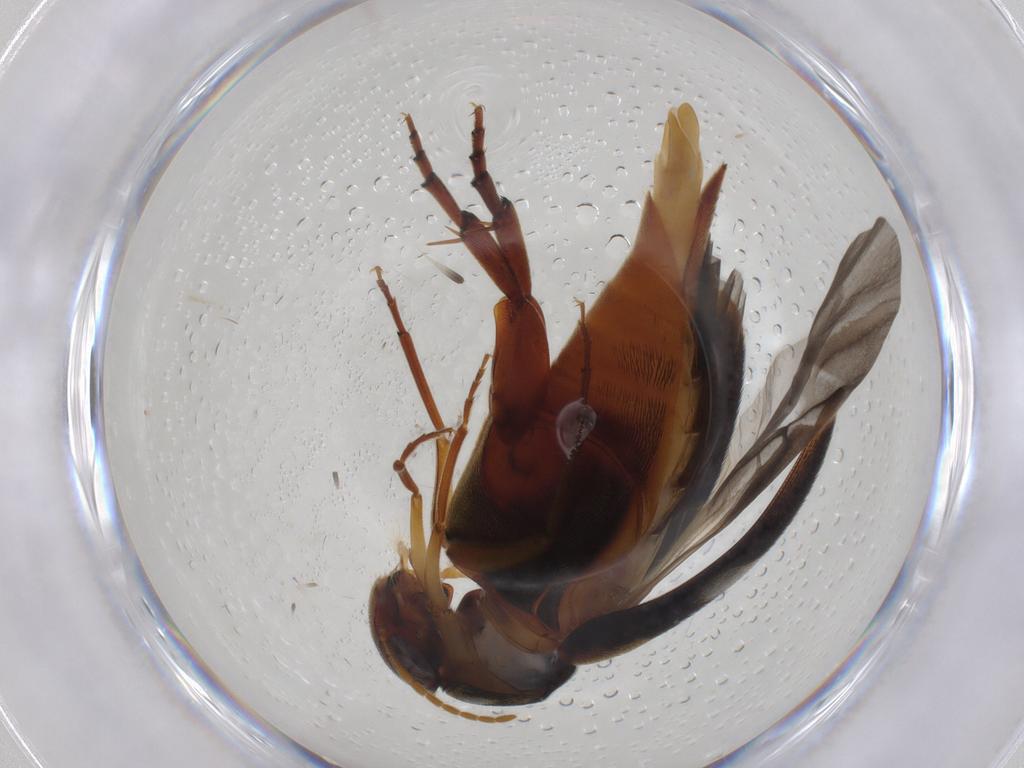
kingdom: Animalia
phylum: Arthropoda
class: Insecta
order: Coleoptera
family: Mordellidae
